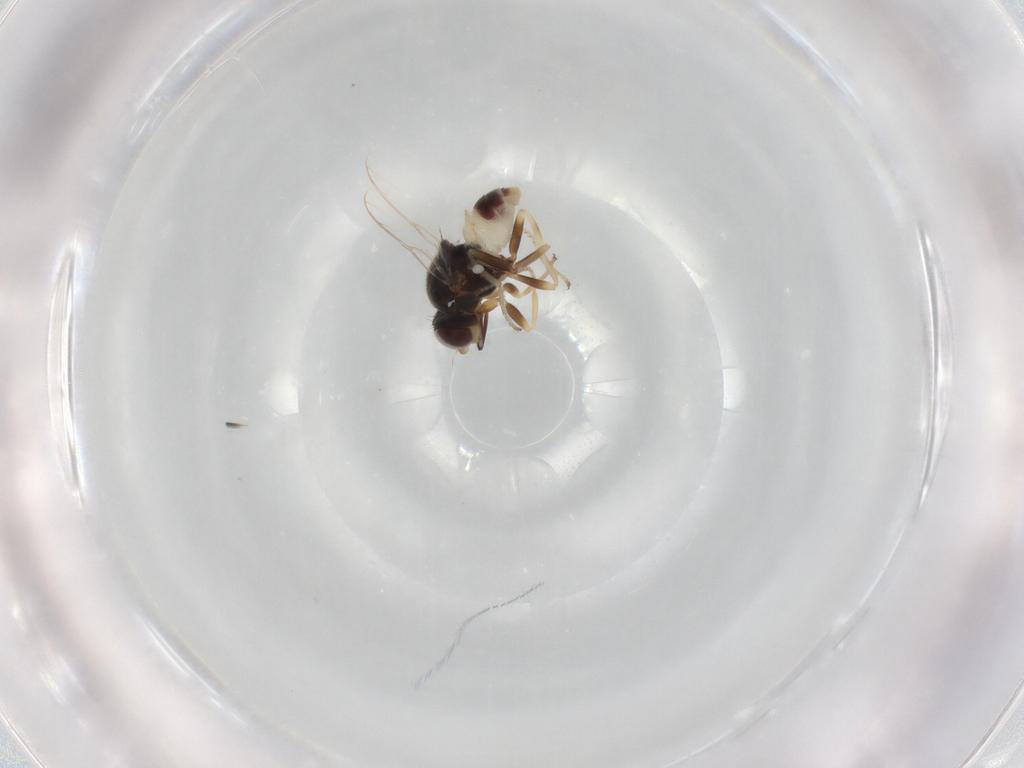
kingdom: Animalia
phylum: Arthropoda
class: Insecta
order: Diptera
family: Chloropidae
